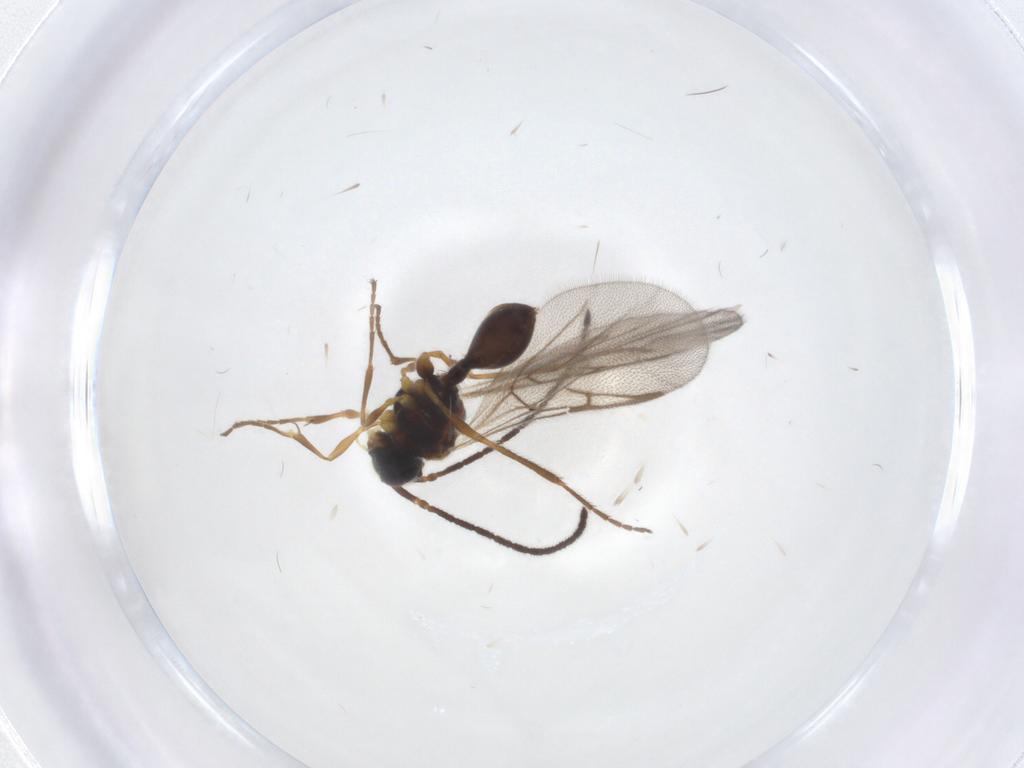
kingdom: Animalia
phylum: Arthropoda
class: Insecta
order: Hymenoptera
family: Diapriidae
